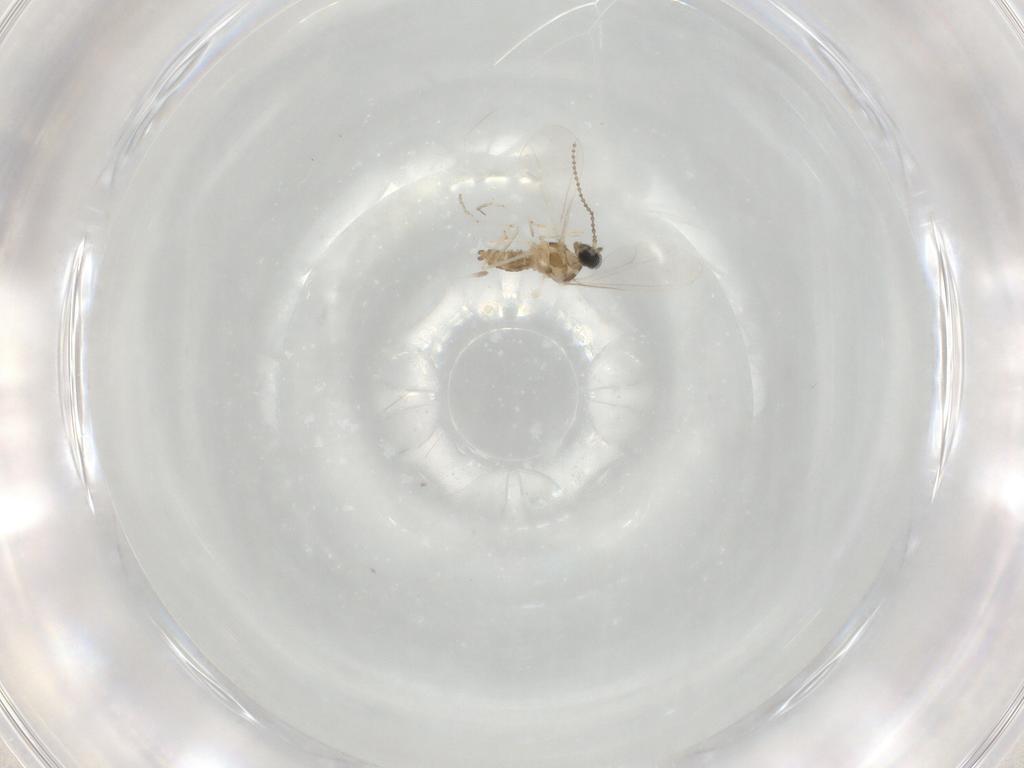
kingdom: Animalia
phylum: Arthropoda
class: Insecta
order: Diptera
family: Cecidomyiidae
